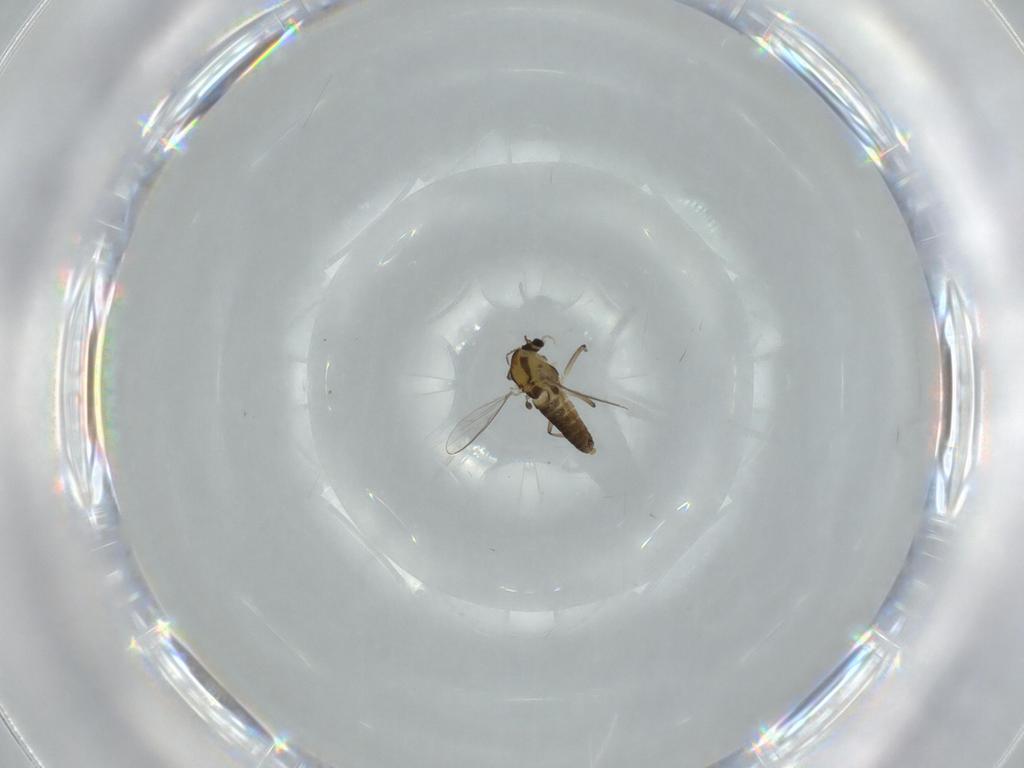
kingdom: Animalia
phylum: Arthropoda
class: Insecta
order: Diptera
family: Chironomidae
